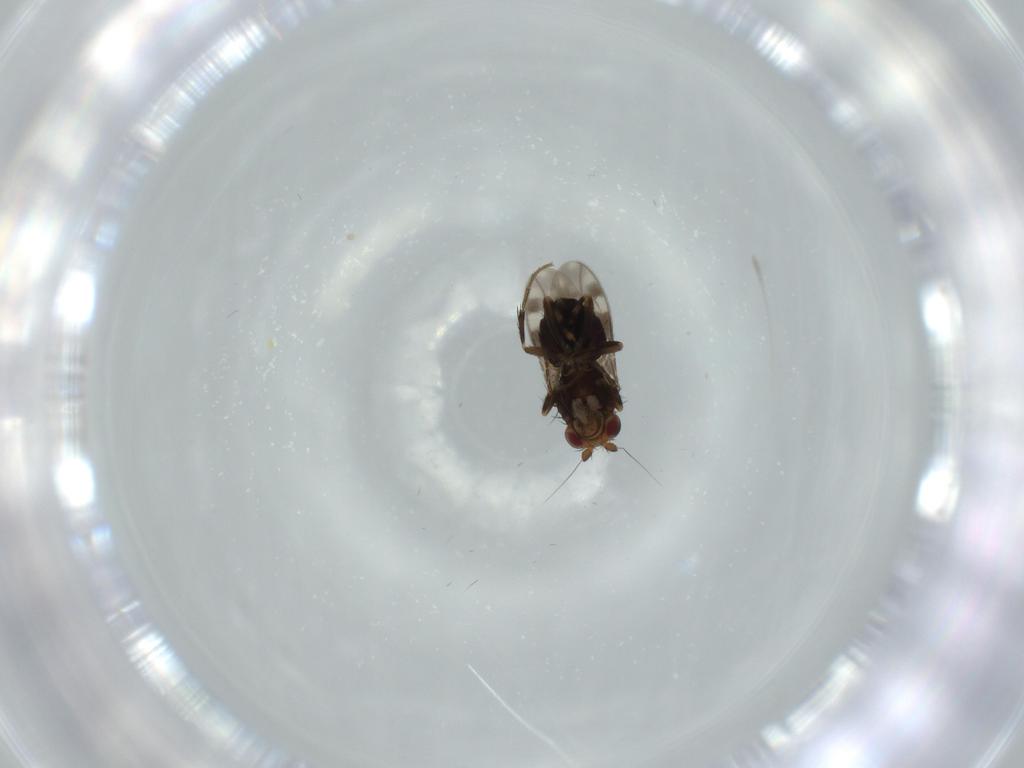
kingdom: Animalia
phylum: Arthropoda
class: Insecta
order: Diptera
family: Sphaeroceridae
